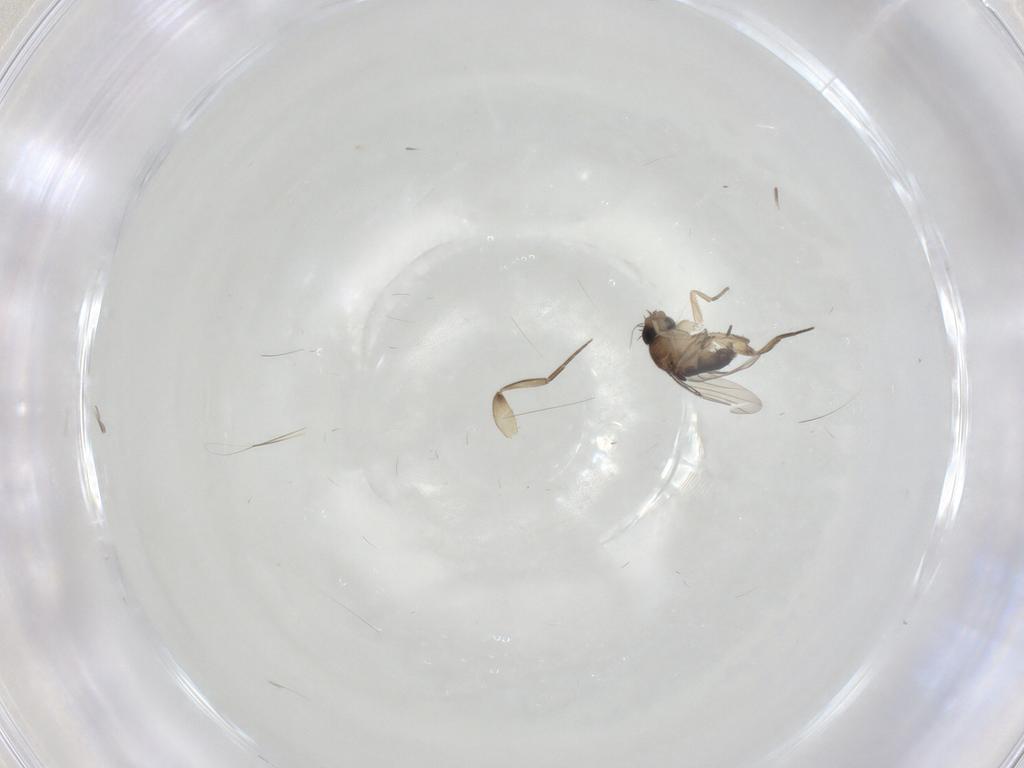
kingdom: Animalia
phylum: Arthropoda
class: Insecta
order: Diptera
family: Phoridae
